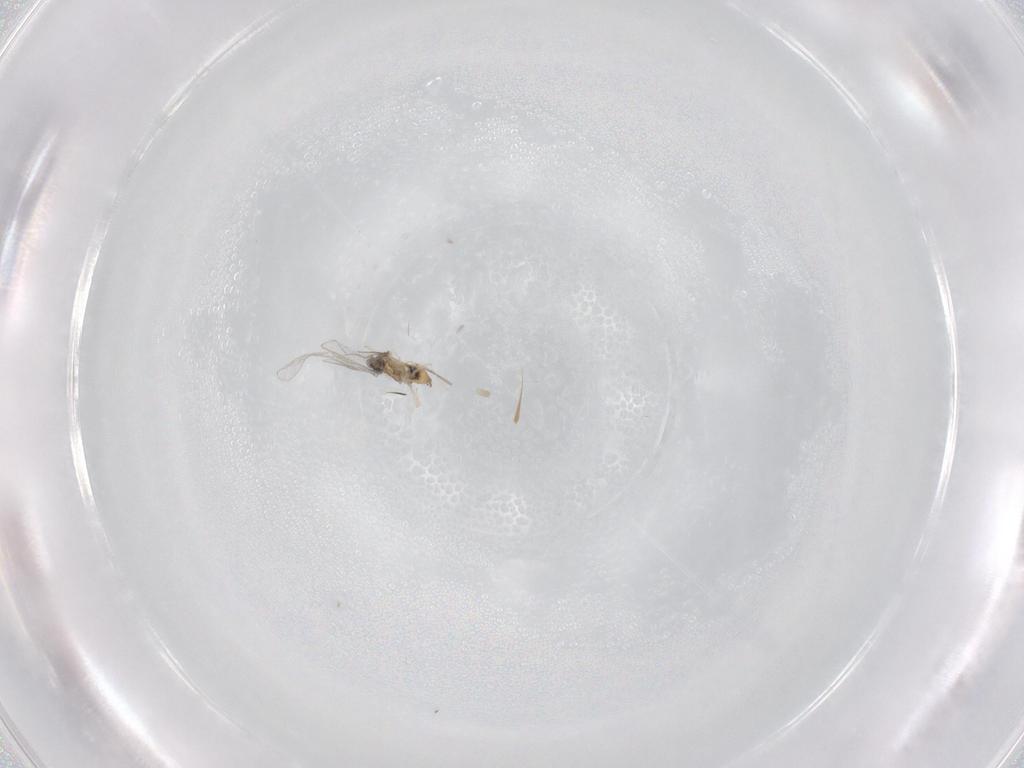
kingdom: Animalia
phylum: Arthropoda
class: Insecta
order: Diptera
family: Cecidomyiidae
